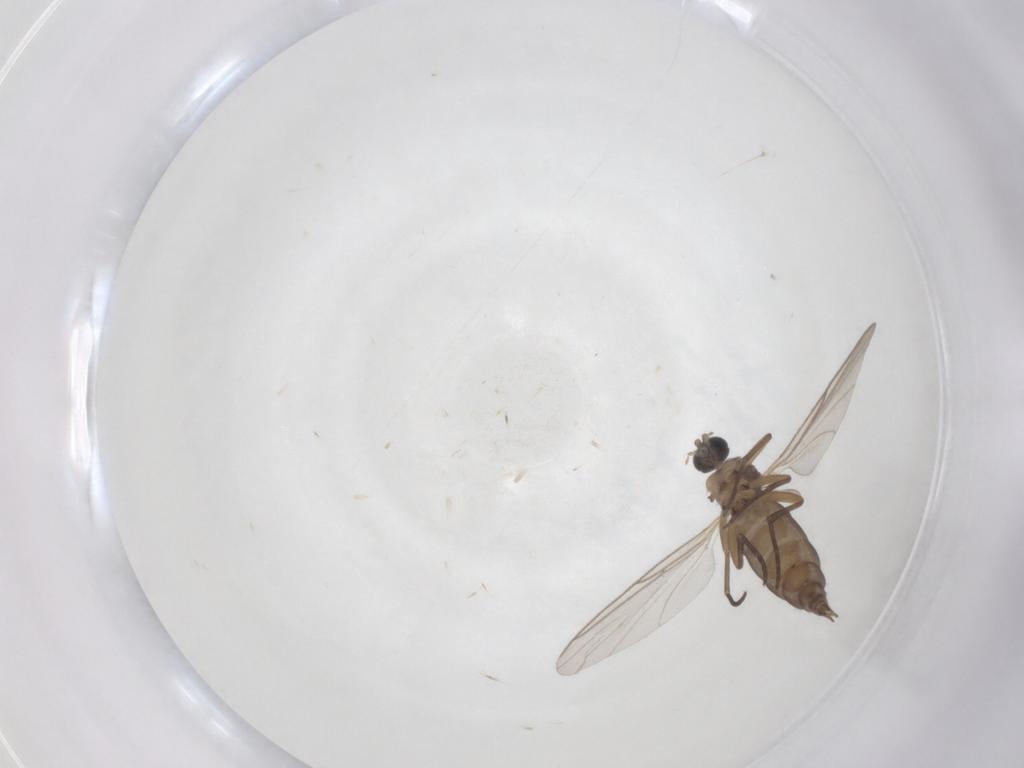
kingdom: Animalia
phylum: Arthropoda
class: Insecta
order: Diptera
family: Sciaridae
